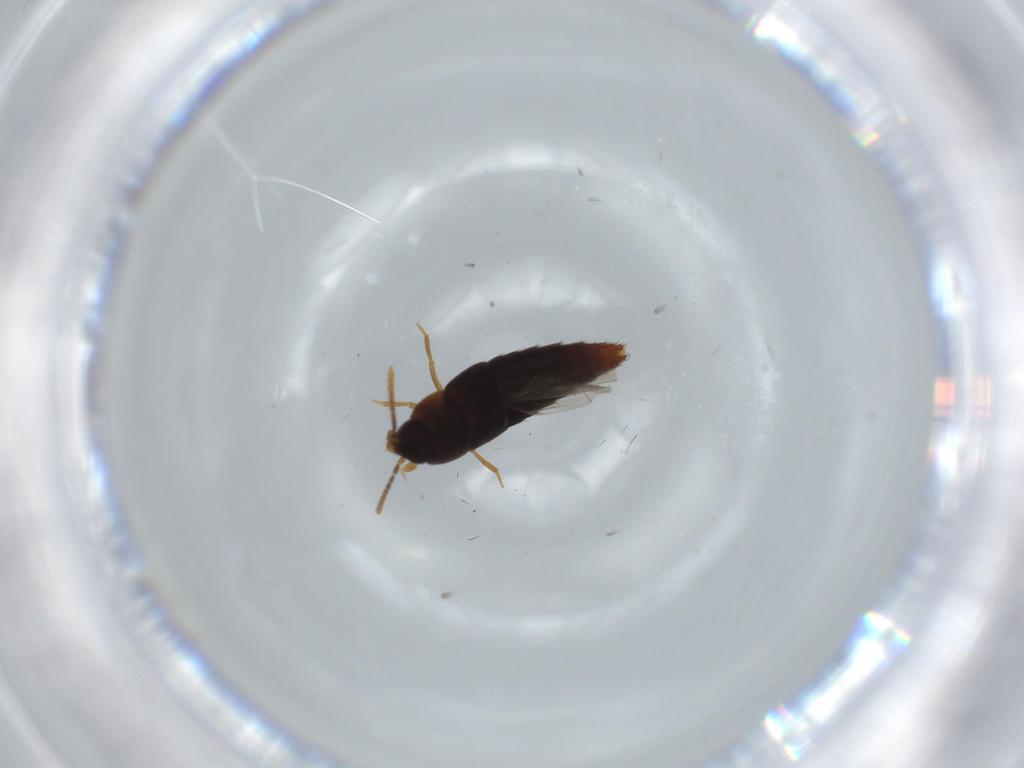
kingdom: Animalia
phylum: Arthropoda
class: Insecta
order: Coleoptera
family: Staphylinidae
